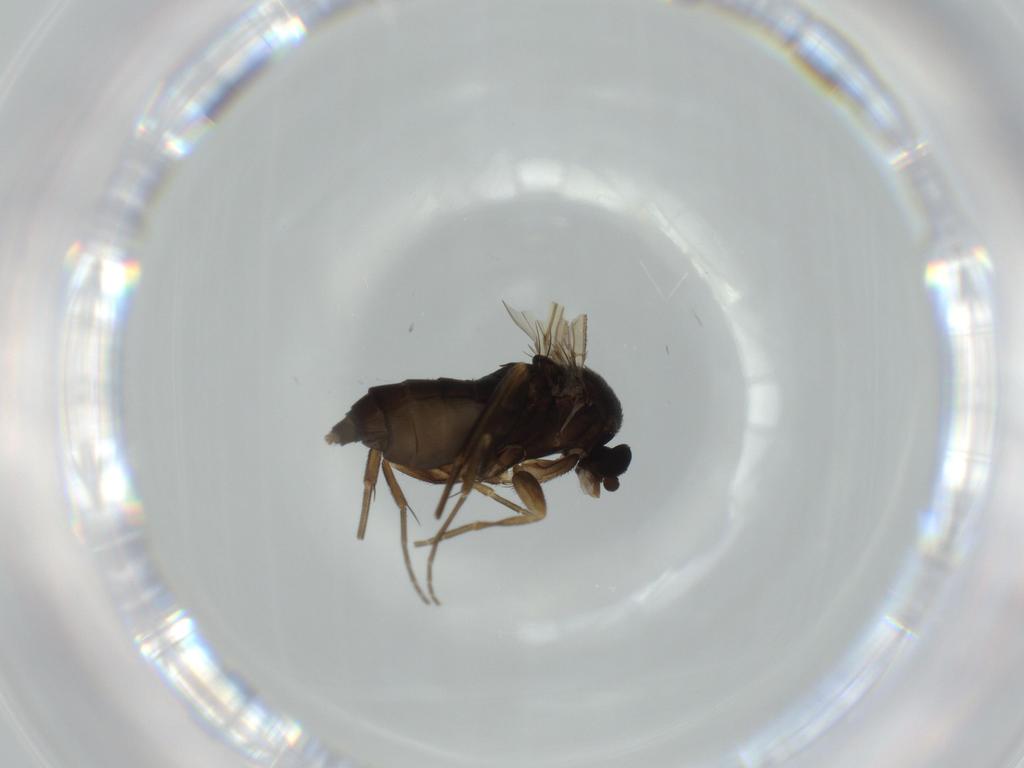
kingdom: Animalia
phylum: Arthropoda
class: Insecta
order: Diptera
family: Cecidomyiidae
